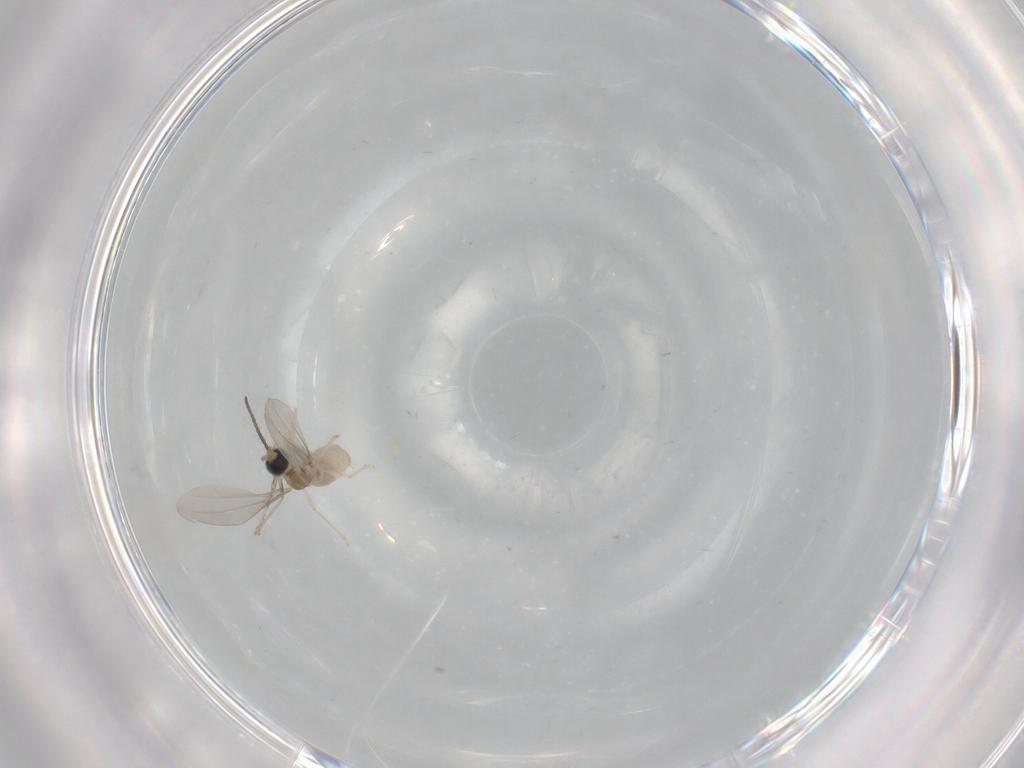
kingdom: Animalia
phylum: Arthropoda
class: Insecta
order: Diptera
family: Cecidomyiidae
